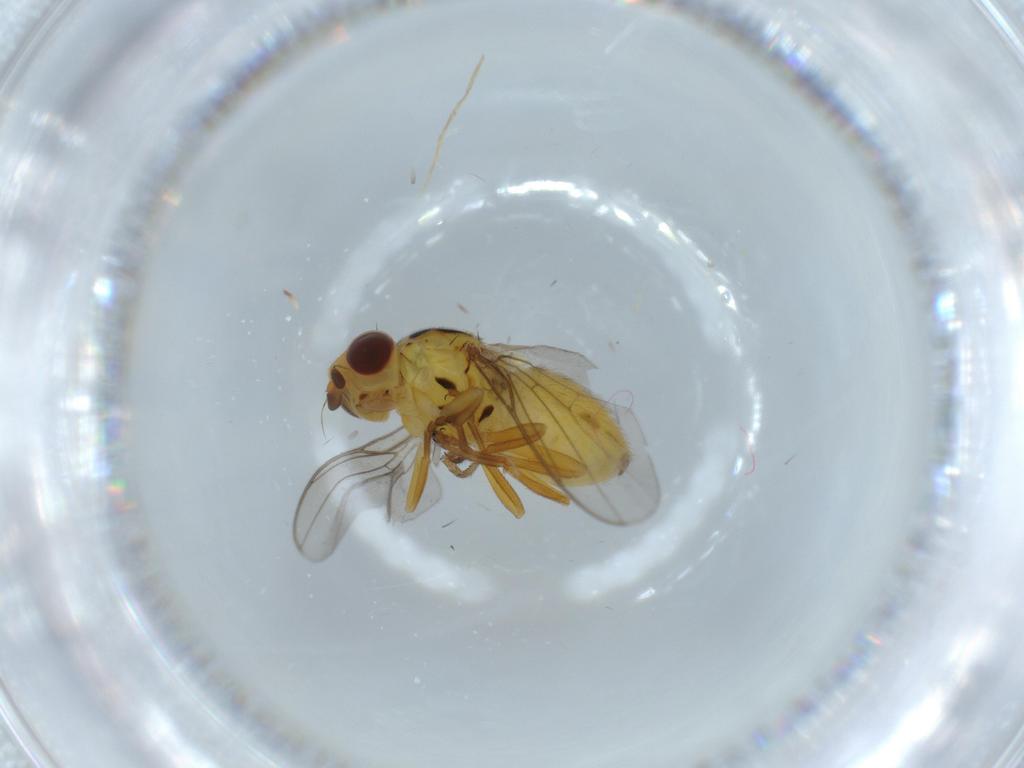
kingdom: Animalia
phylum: Arthropoda
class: Insecta
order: Diptera
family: Chloropidae
